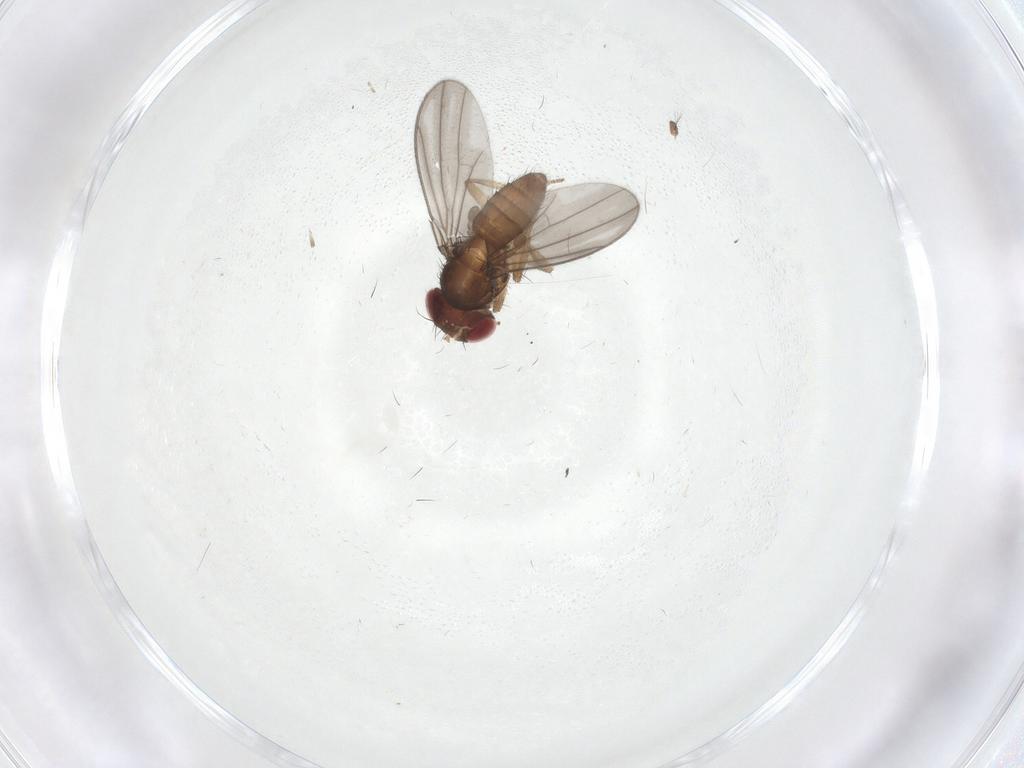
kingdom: Animalia
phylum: Arthropoda
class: Insecta
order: Diptera
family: Drosophilidae
